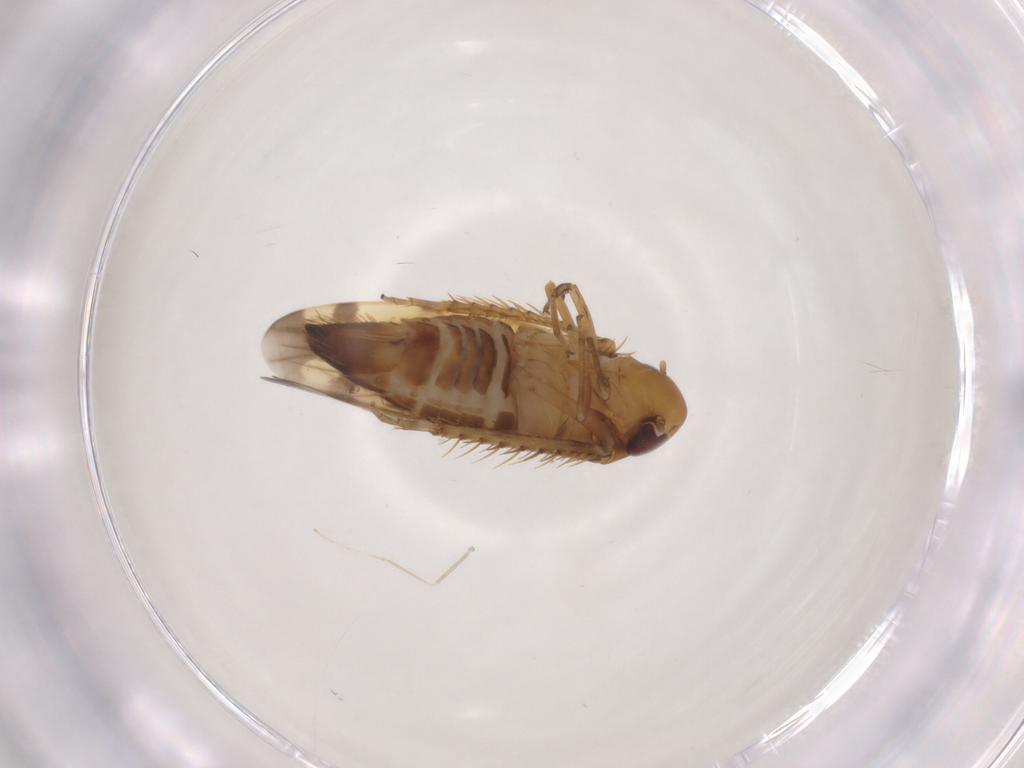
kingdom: Animalia
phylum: Arthropoda
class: Insecta
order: Hemiptera
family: Cicadellidae
